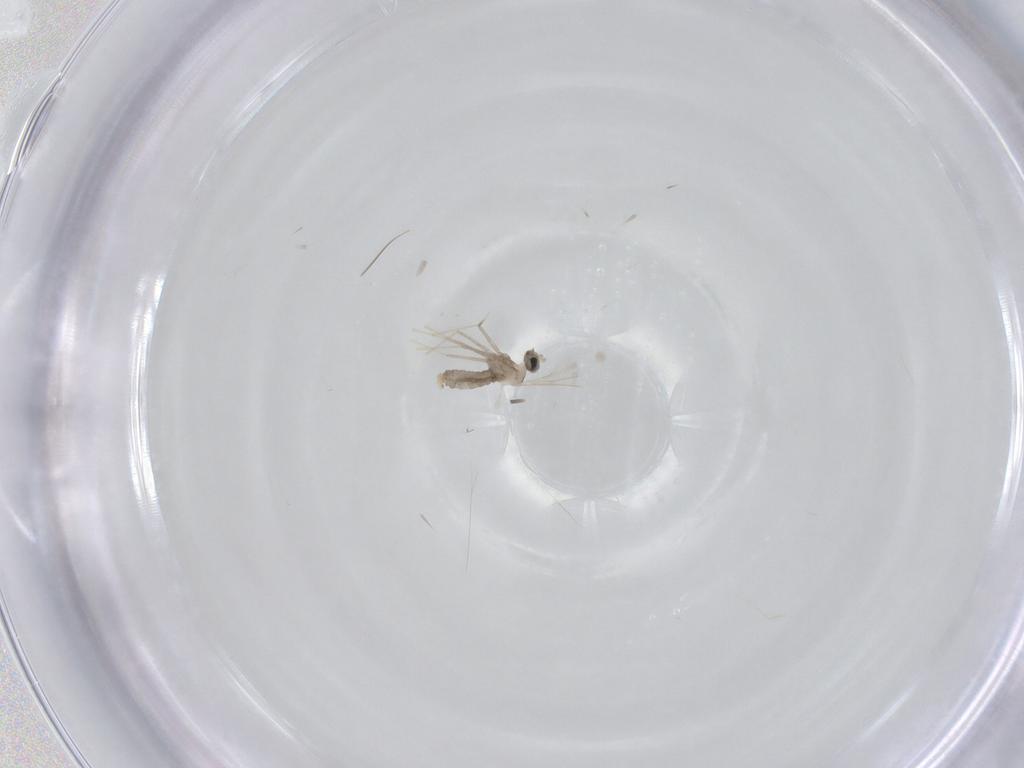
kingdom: Animalia
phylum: Arthropoda
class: Insecta
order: Diptera
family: Cecidomyiidae
